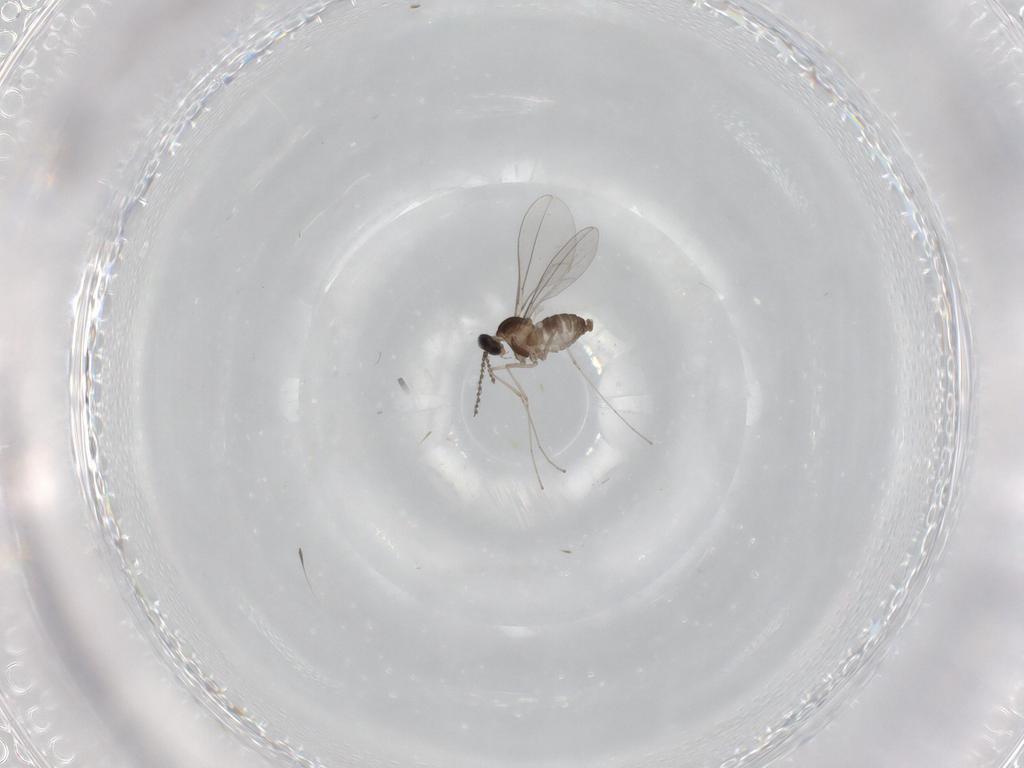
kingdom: Animalia
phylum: Arthropoda
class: Insecta
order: Diptera
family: Cecidomyiidae
